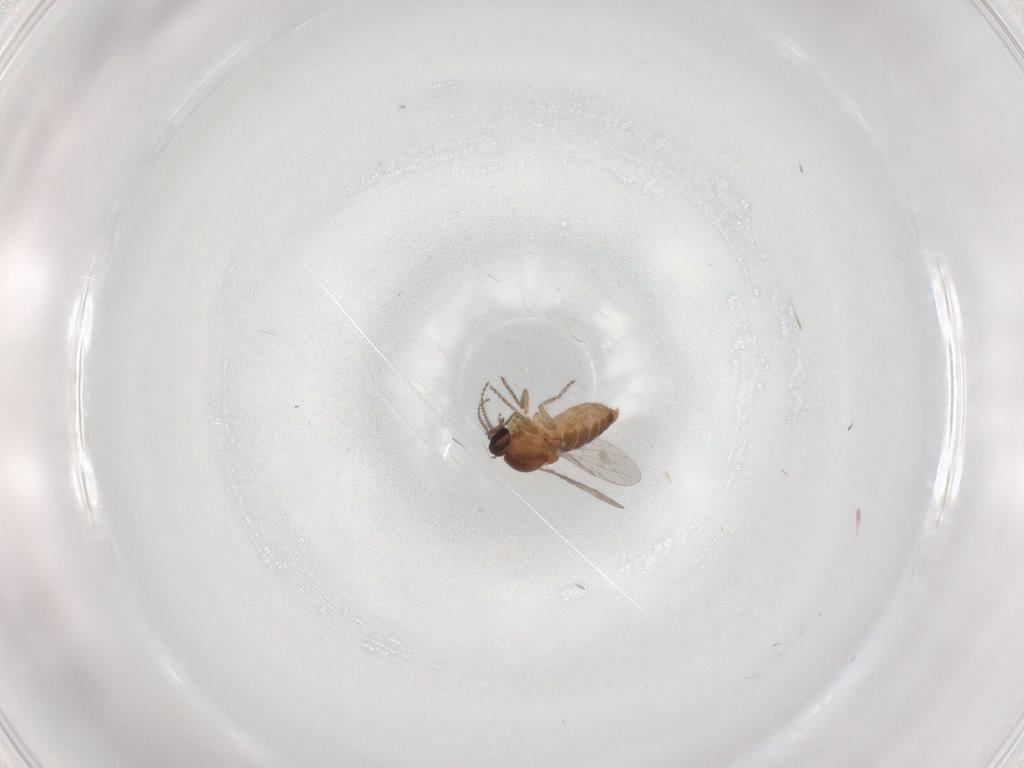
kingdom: Animalia
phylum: Arthropoda
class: Insecta
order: Diptera
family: Ceratopogonidae
